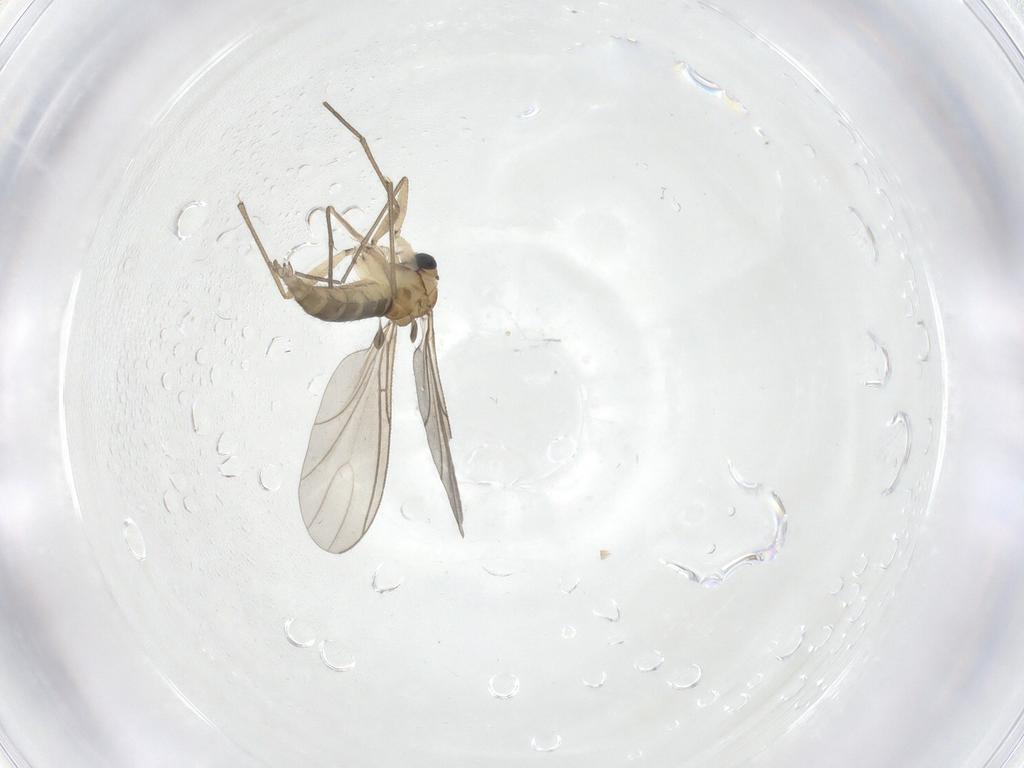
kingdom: Animalia
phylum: Arthropoda
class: Insecta
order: Diptera
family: Sciaridae
